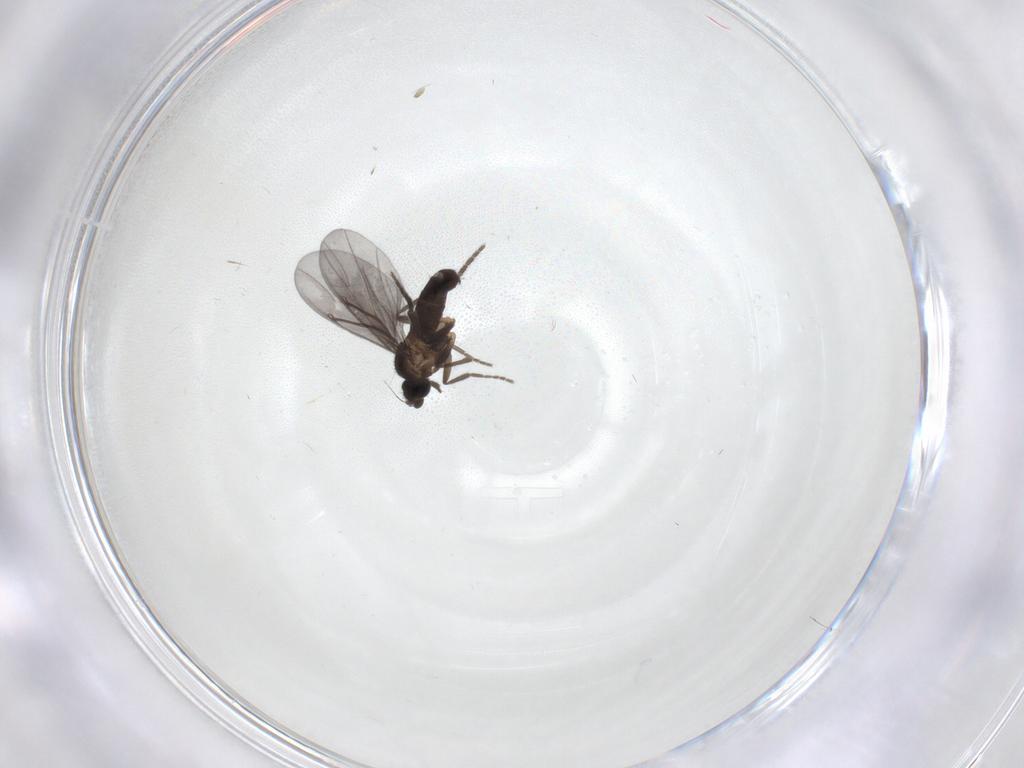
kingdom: Animalia
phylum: Arthropoda
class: Insecta
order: Diptera
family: Phoridae
